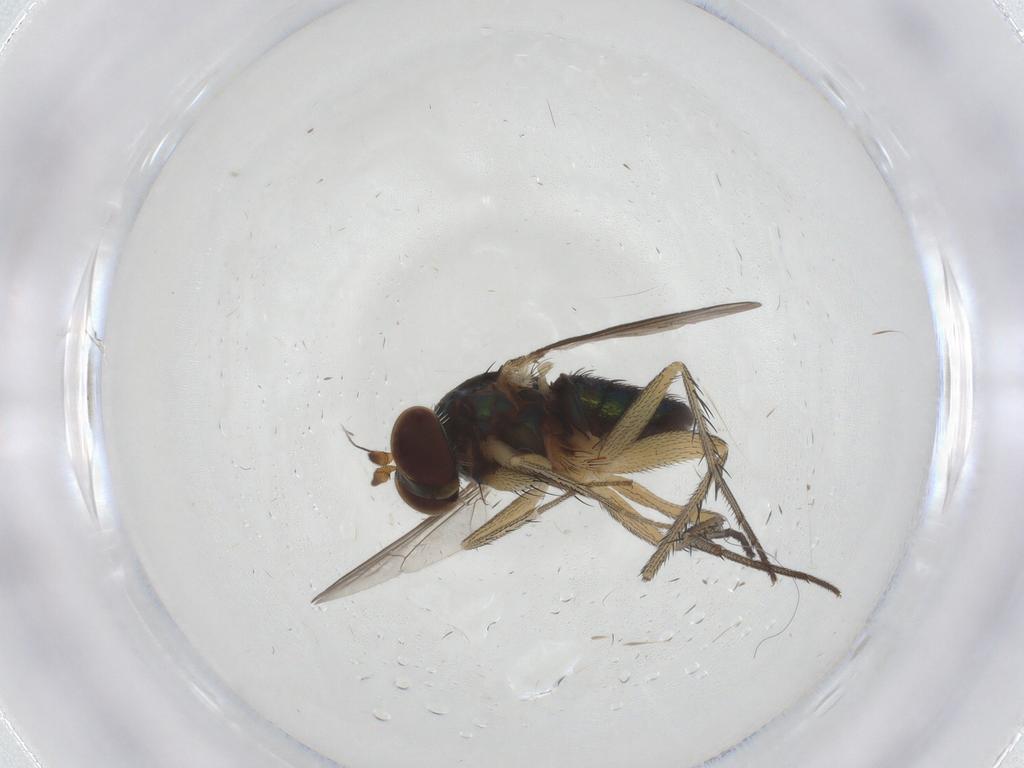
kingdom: Animalia
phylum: Arthropoda
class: Insecta
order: Diptera
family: Dolichopodidae
